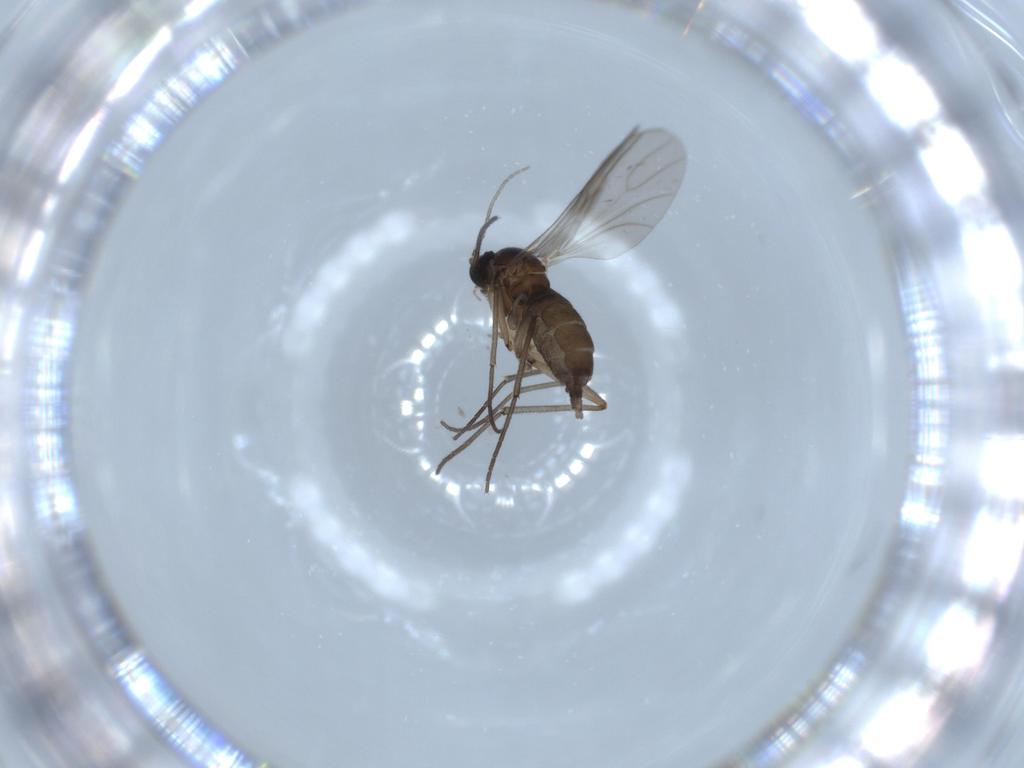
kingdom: Animalia
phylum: Arthropoda
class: Insecta
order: Diptera
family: Sciaridae
